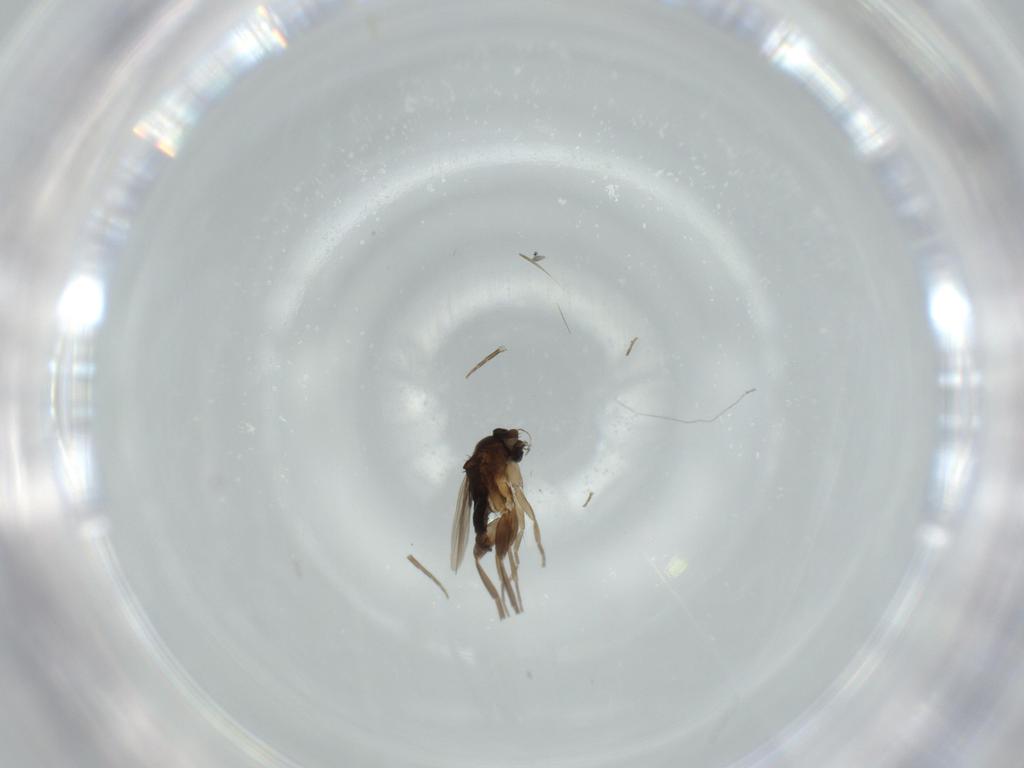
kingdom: Animalia
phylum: Arthropoda
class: Insecta
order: Diptera
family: Phoridae
